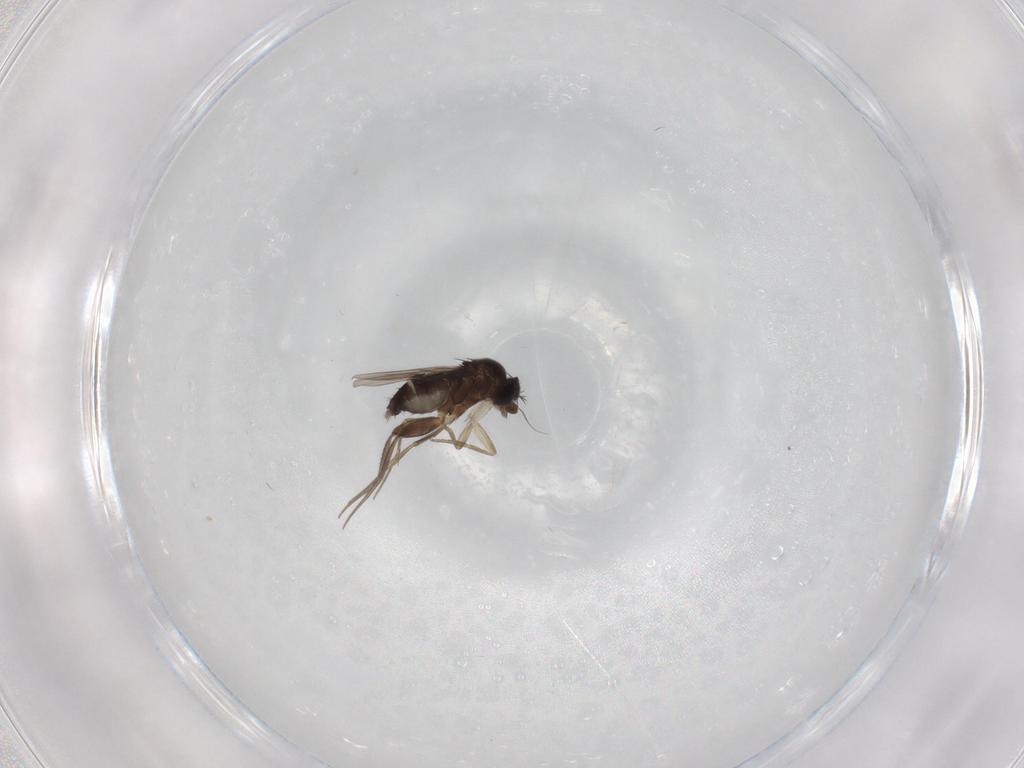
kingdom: Animalia
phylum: Arthropoda
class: Insecta
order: Diptera
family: Phoridae
